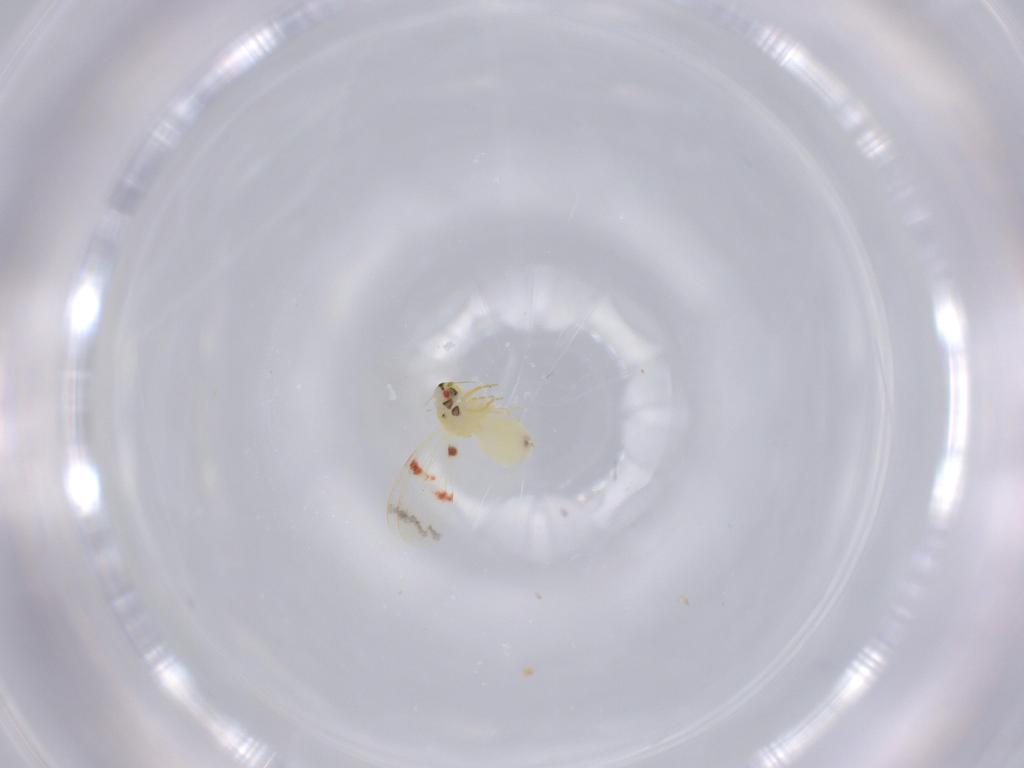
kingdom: Animalia
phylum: Arthropoda
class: Insecta
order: Hemiptera
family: Aleyrodidae
